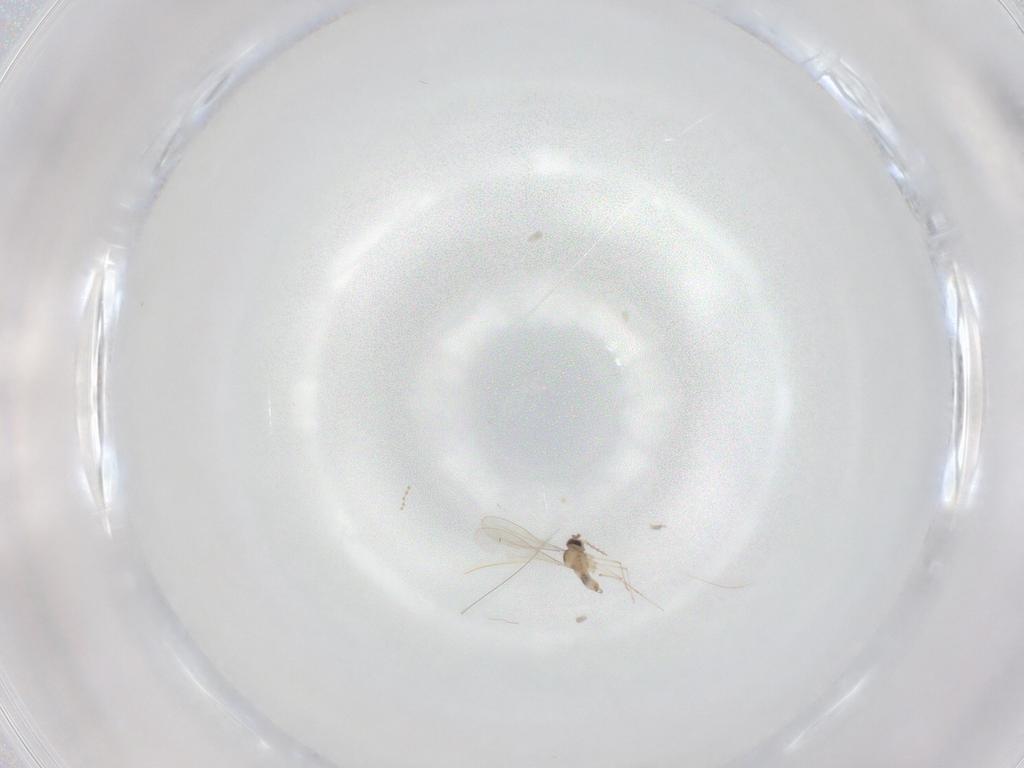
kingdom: Animalia
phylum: Arthropoda
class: Insecta
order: Diptera
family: Cecidomyiidae
